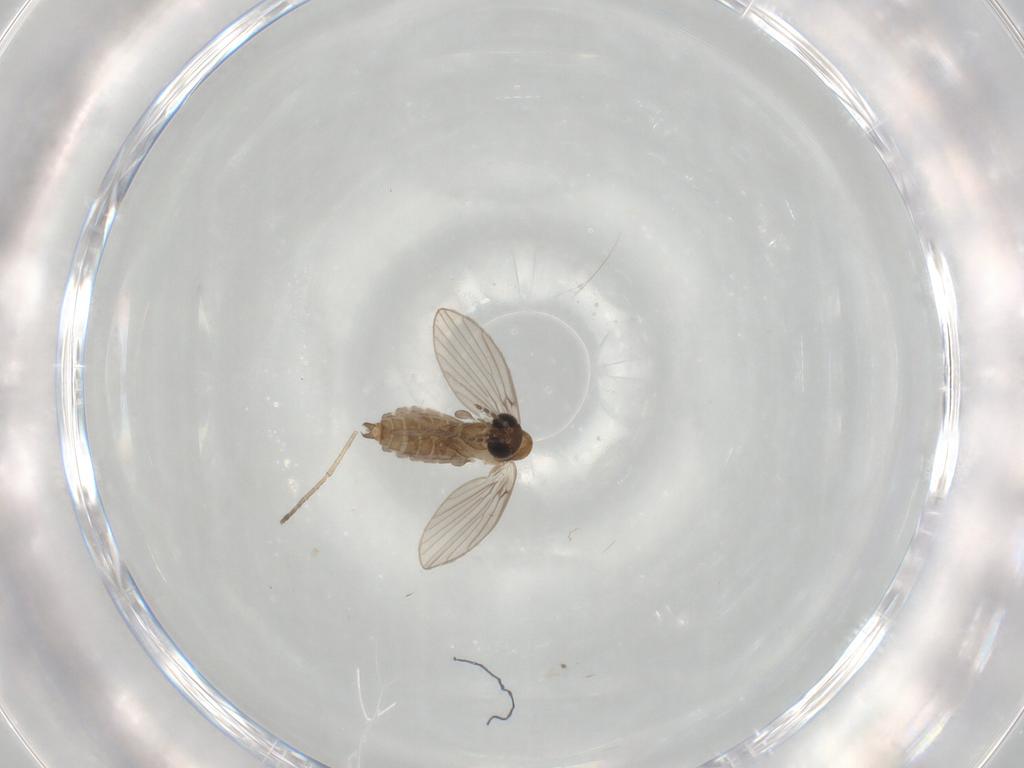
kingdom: Animalia
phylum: Arthropoda
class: Insecta
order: Diptera
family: Psychodidae
